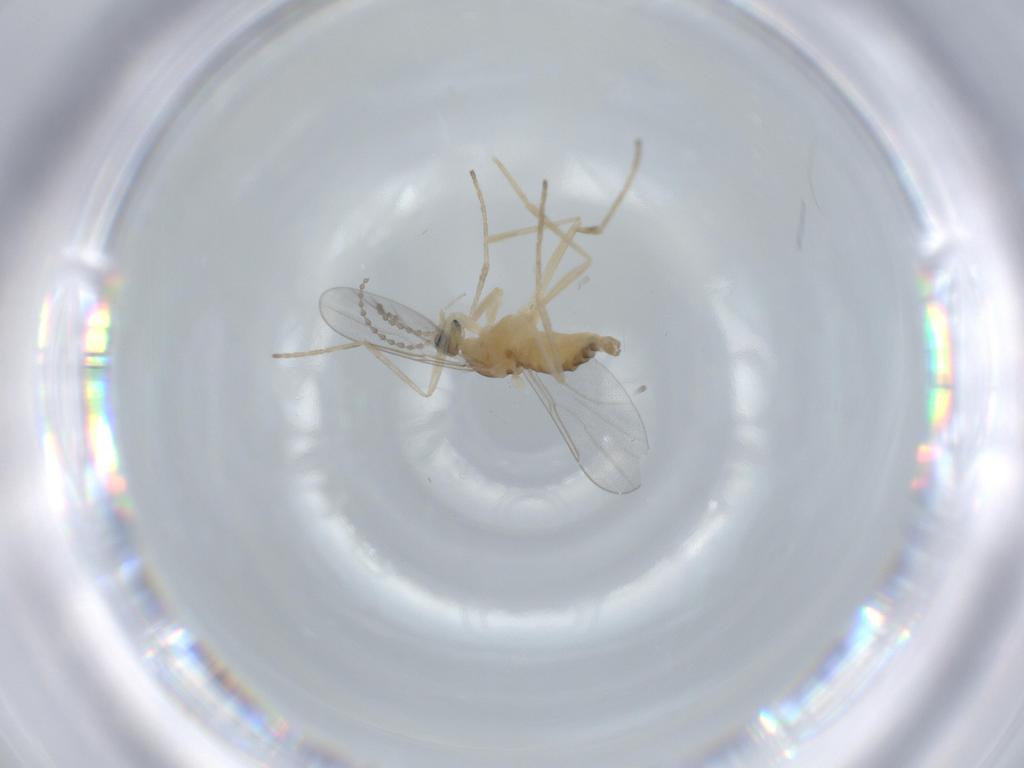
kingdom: Animalia
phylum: Arthropoda
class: Insecta
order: Diptera
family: Cecidomyiidae
